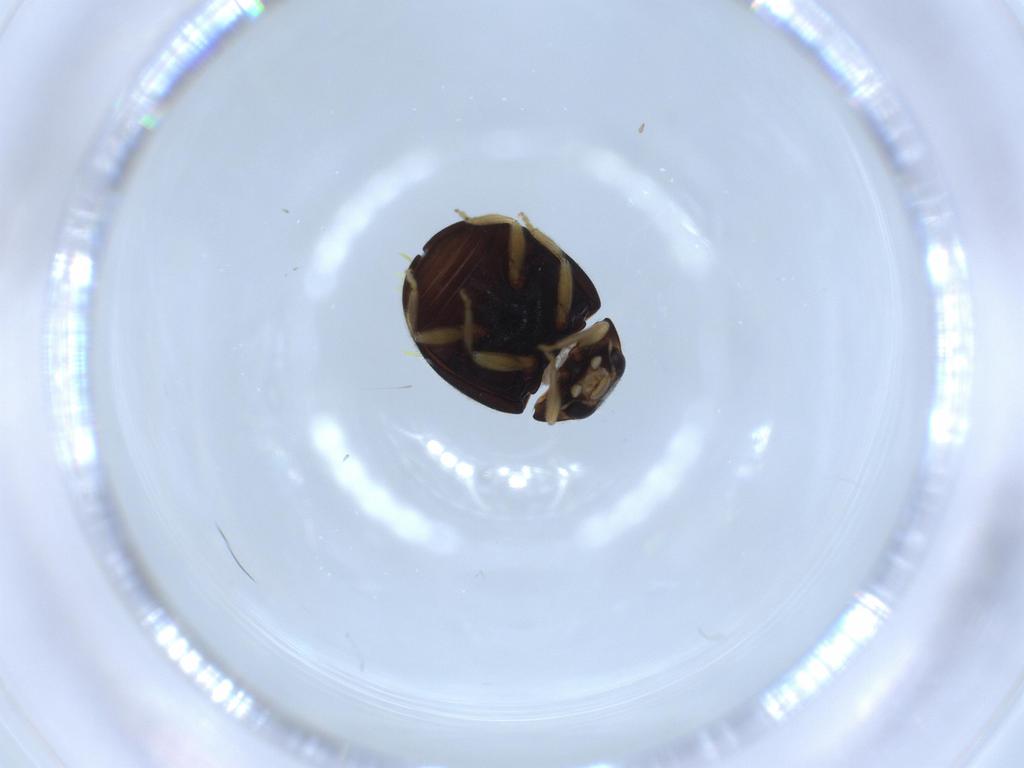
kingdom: Animalia
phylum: Arthropoda
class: Insecta
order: Coleoptera
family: Coccinellidae
